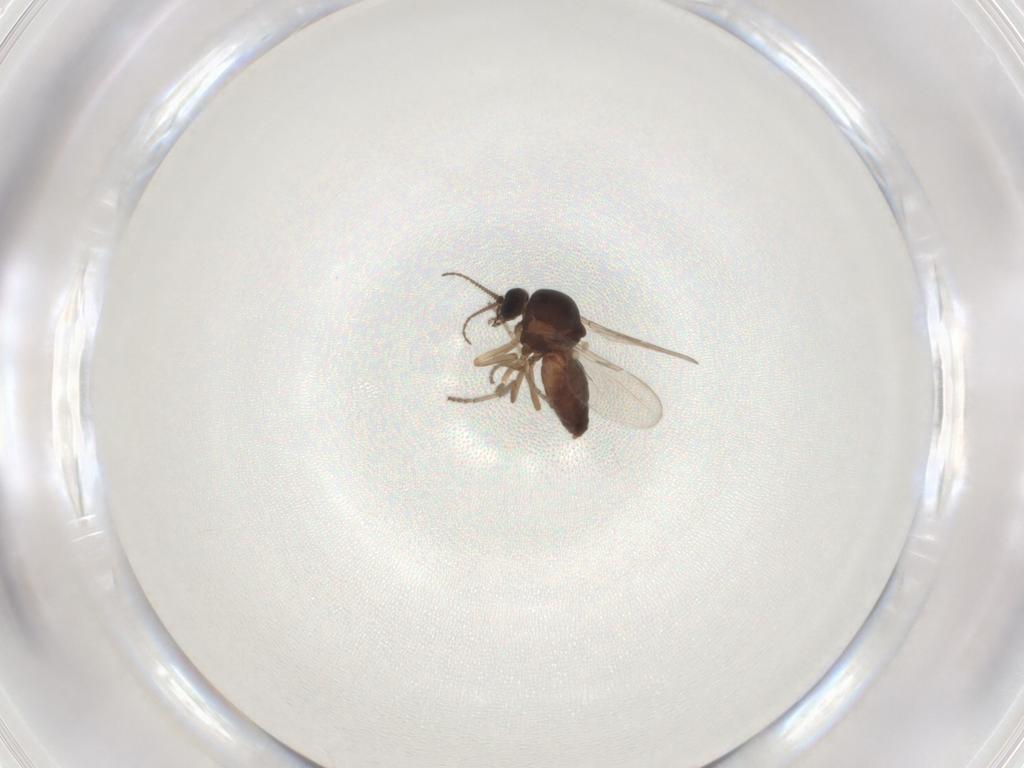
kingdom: Animalia
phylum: Arthropoda
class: Insecta
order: Diptera
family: Ceratopogonidae
